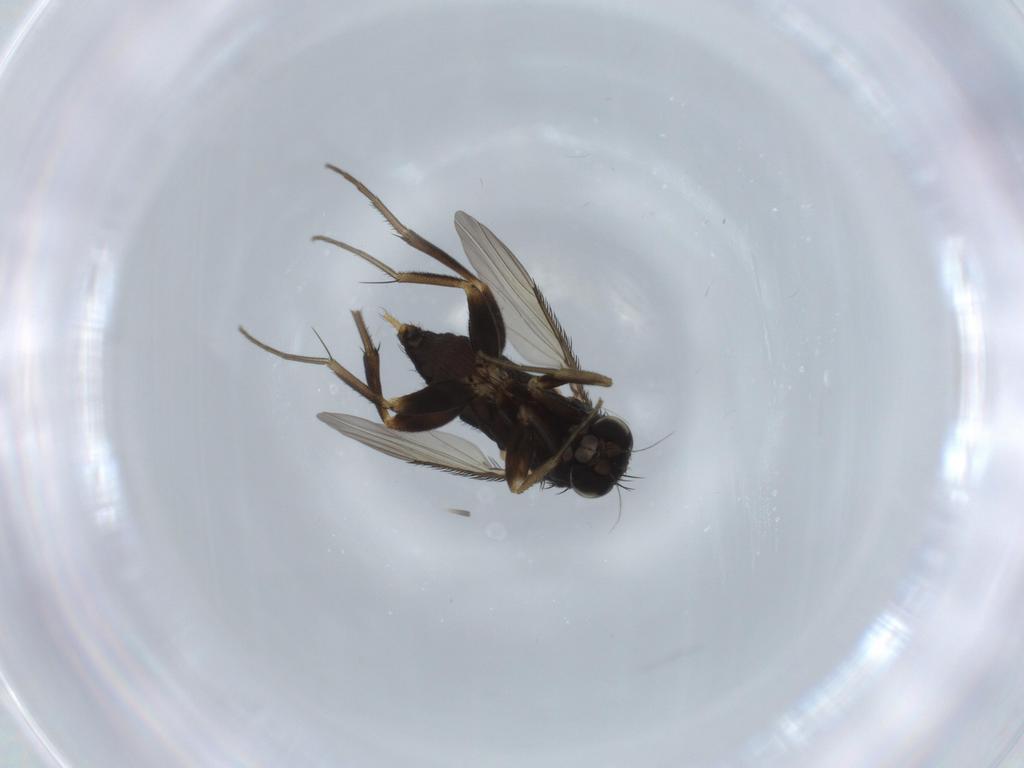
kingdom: Animalia
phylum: Arthropoda
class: Insecta
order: Diptera
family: Phoridae
